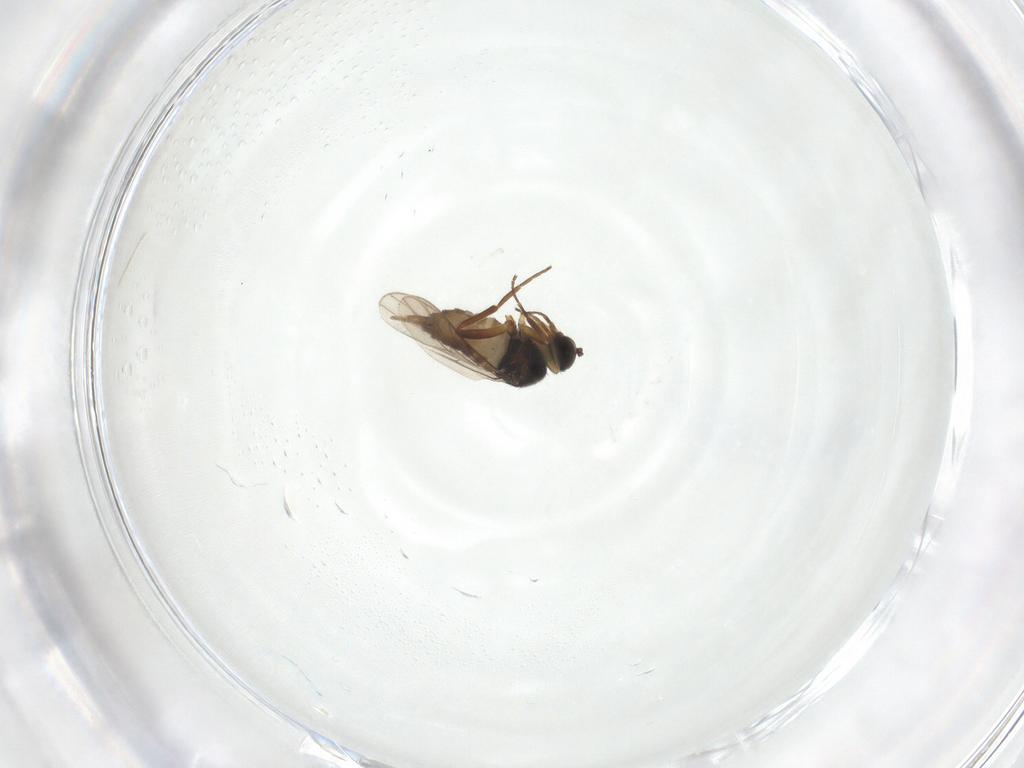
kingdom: Animalia
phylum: Arthropoda
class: Insecta
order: Diptera
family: Hybotidae
